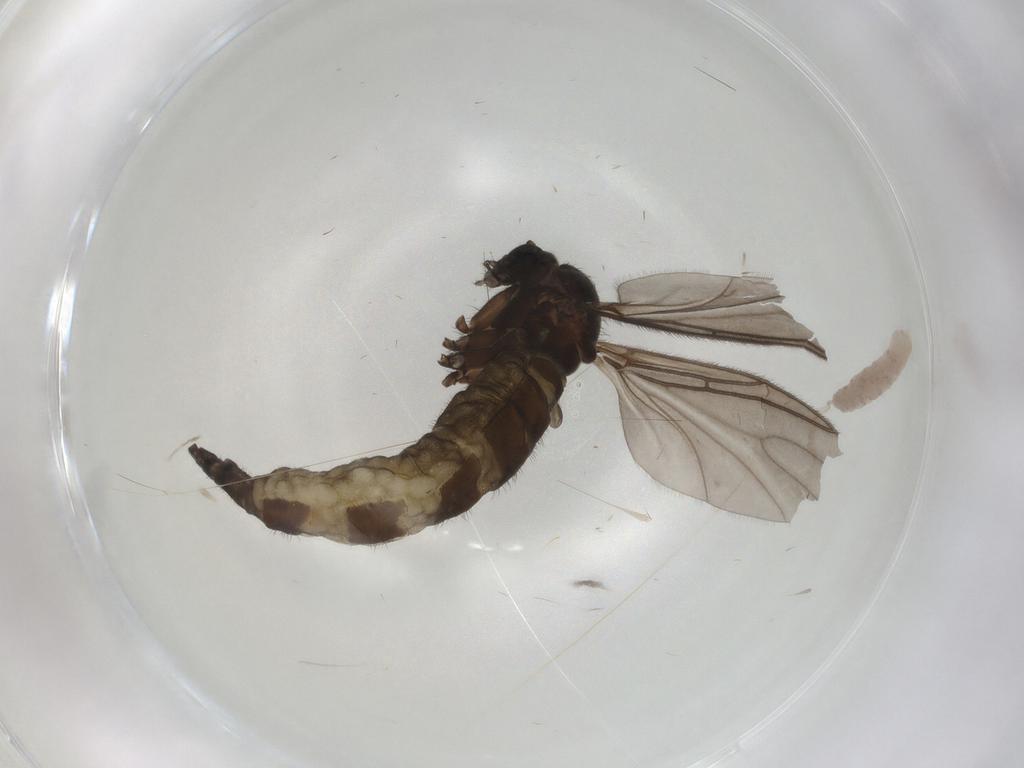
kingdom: Animalia
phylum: Arthropoda
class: Insecta
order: Diptera
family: Sciaridae
